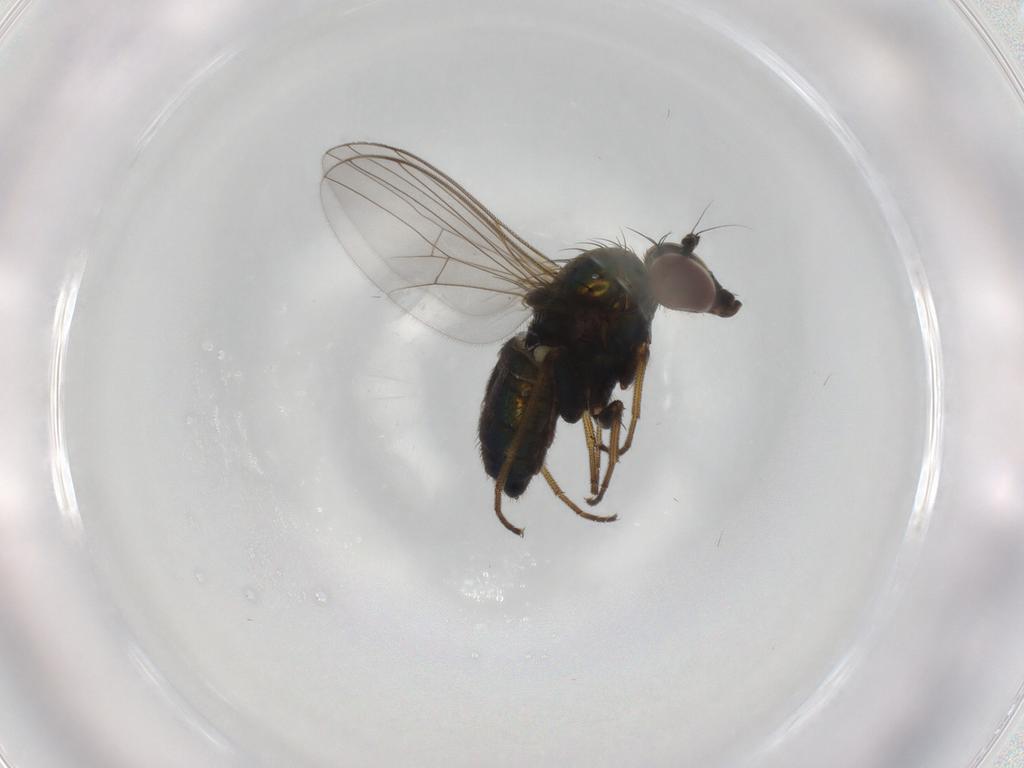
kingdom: Animalia
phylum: Arthropoda
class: Insecta
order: Diptera
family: Dolichopodidae
